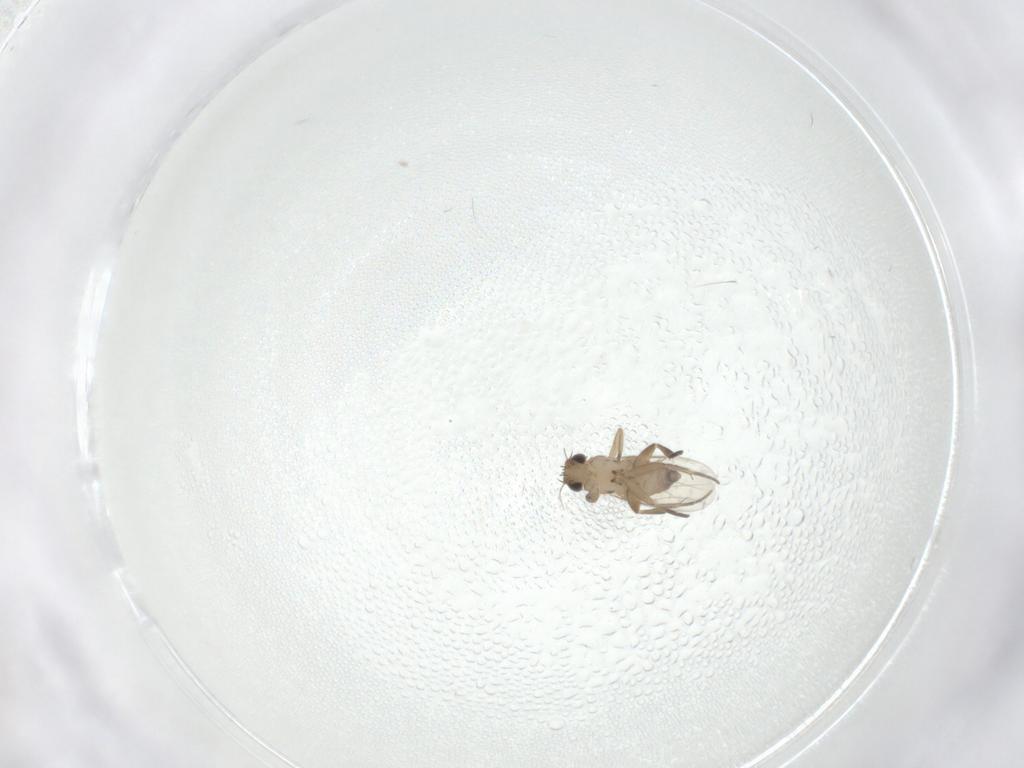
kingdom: Animalia
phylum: Arthropoda
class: Insecta
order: Diptera
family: Phoridae
